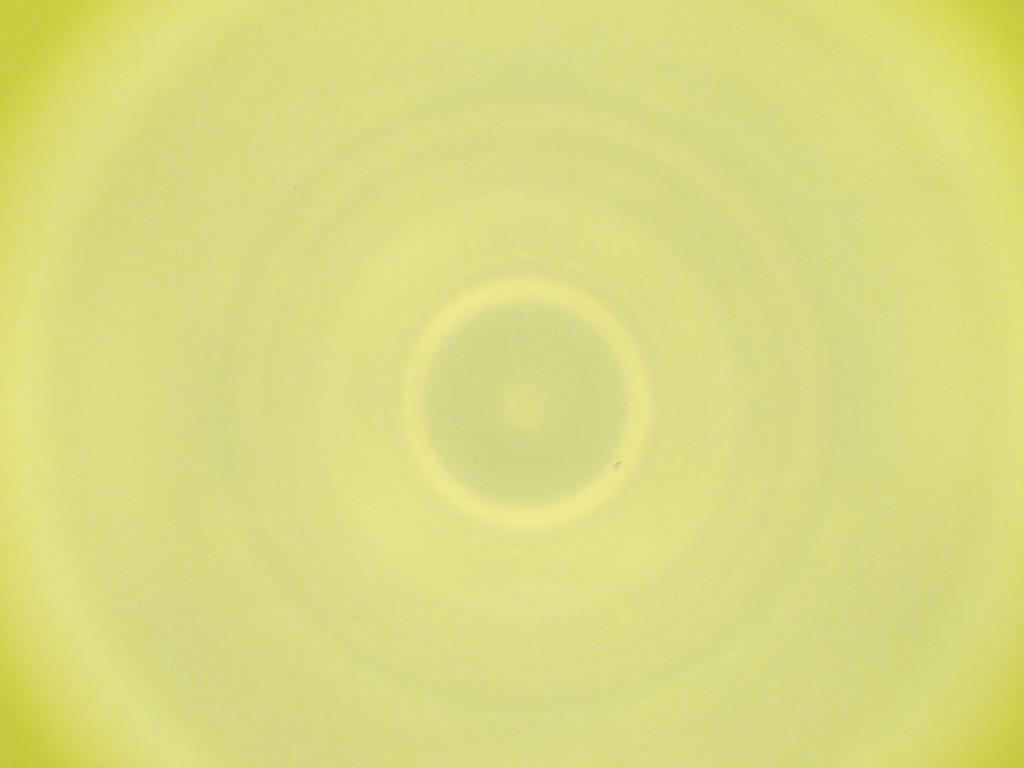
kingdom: Animalia
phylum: Arthropoda
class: Insecta
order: Diptera
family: Cecidomyiidae
